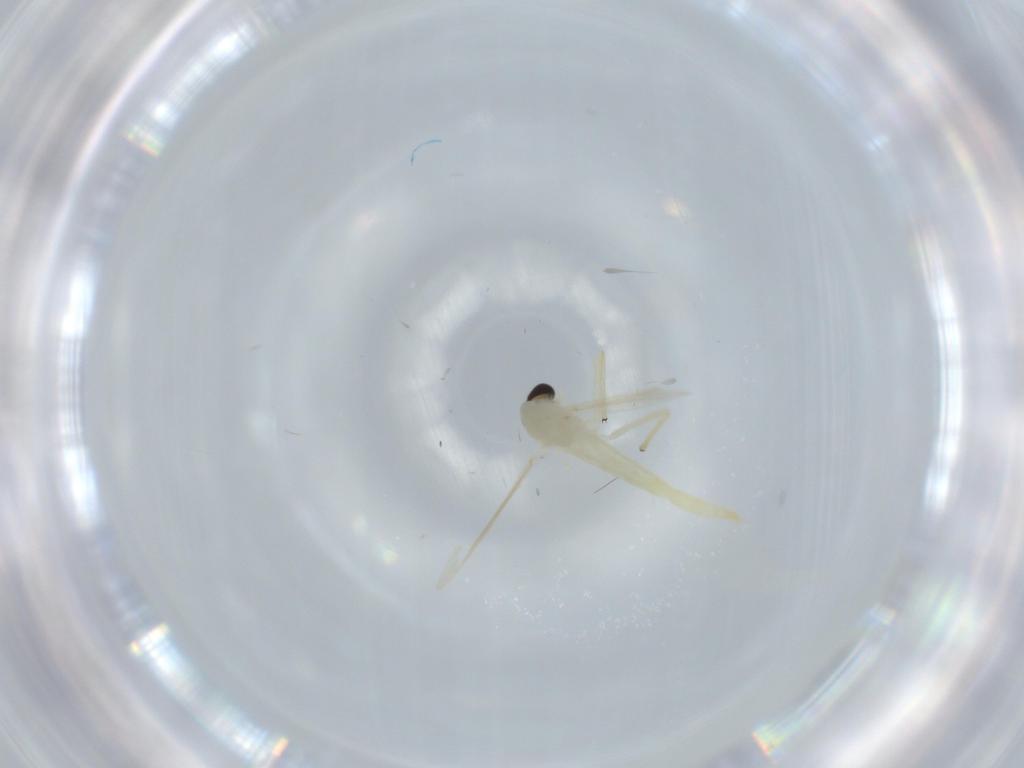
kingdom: Animalia
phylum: Arthropoda
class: Insecta
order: Diptera
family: Chironomidae
